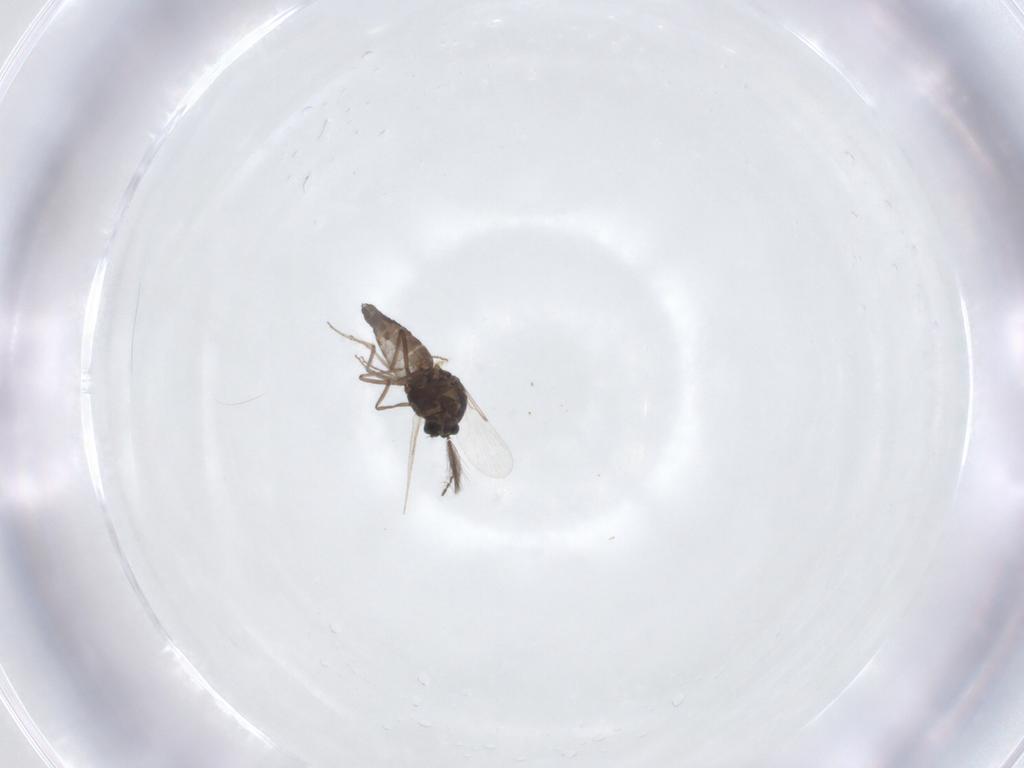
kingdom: Animalia
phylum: Arthropoda
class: Insecta
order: Diptera
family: Ceratopogonidae
